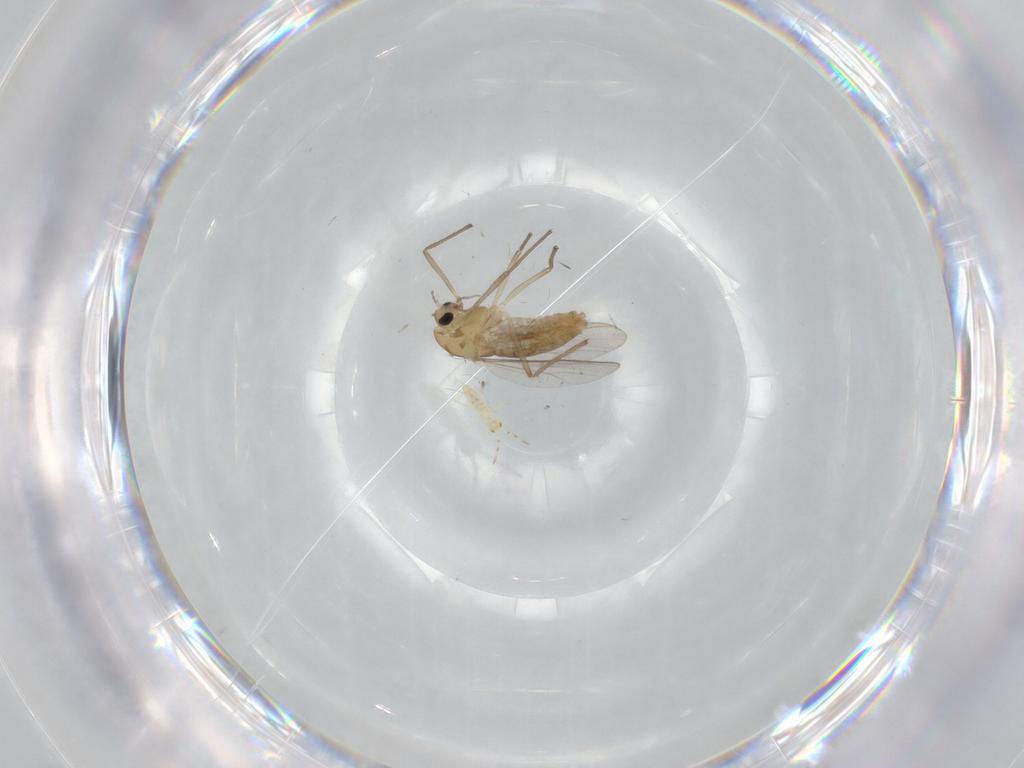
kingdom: Animalia
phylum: Arthropoda
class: Insecta
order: Diptera
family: Chironomidae
